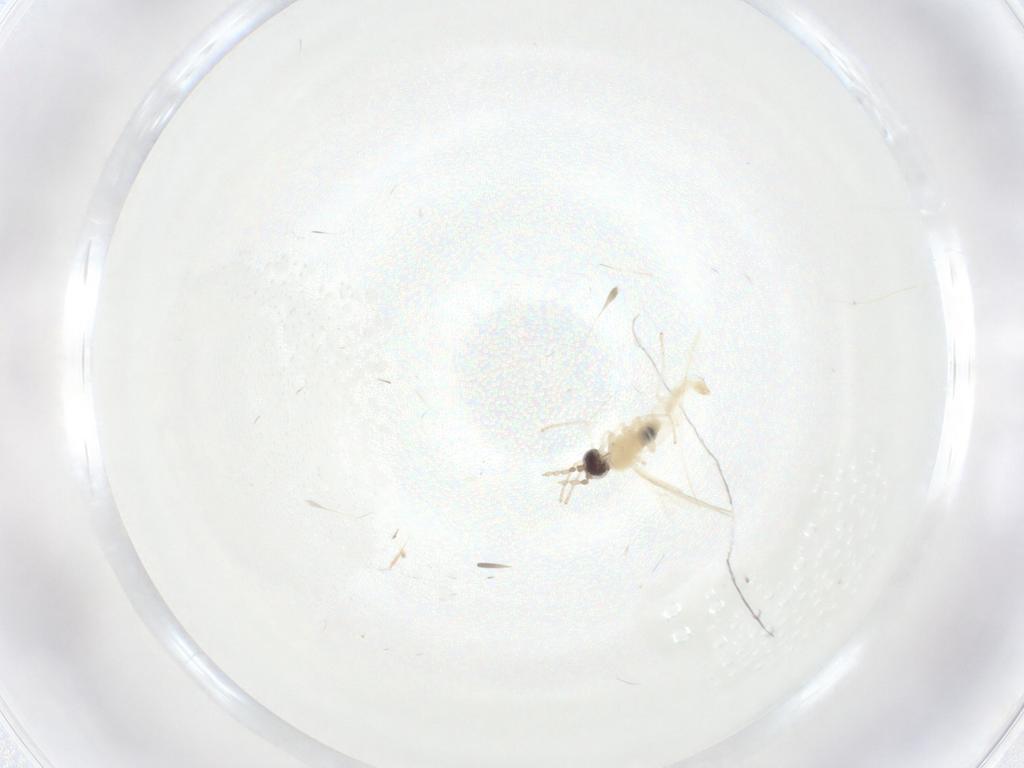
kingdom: Animalia
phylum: Arthropoda
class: Insecta
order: Diptera
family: Cecidomyiidae
